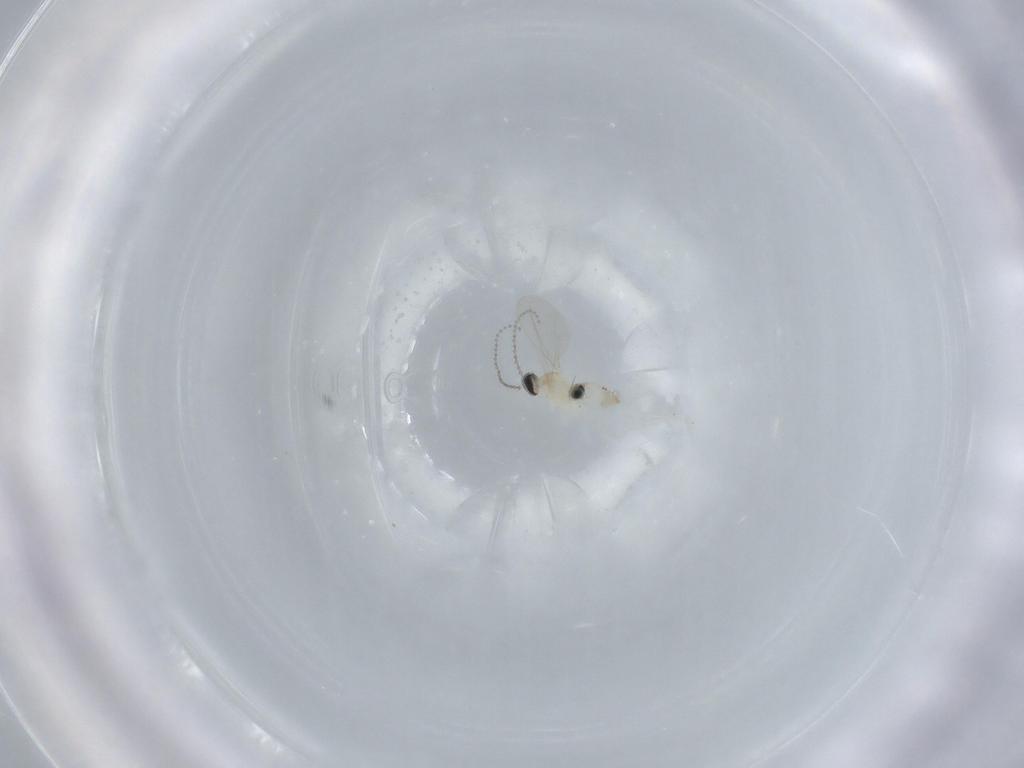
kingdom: Animalia
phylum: Arthropoda
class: Insecta
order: Diptera
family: Cecidomyiidae
